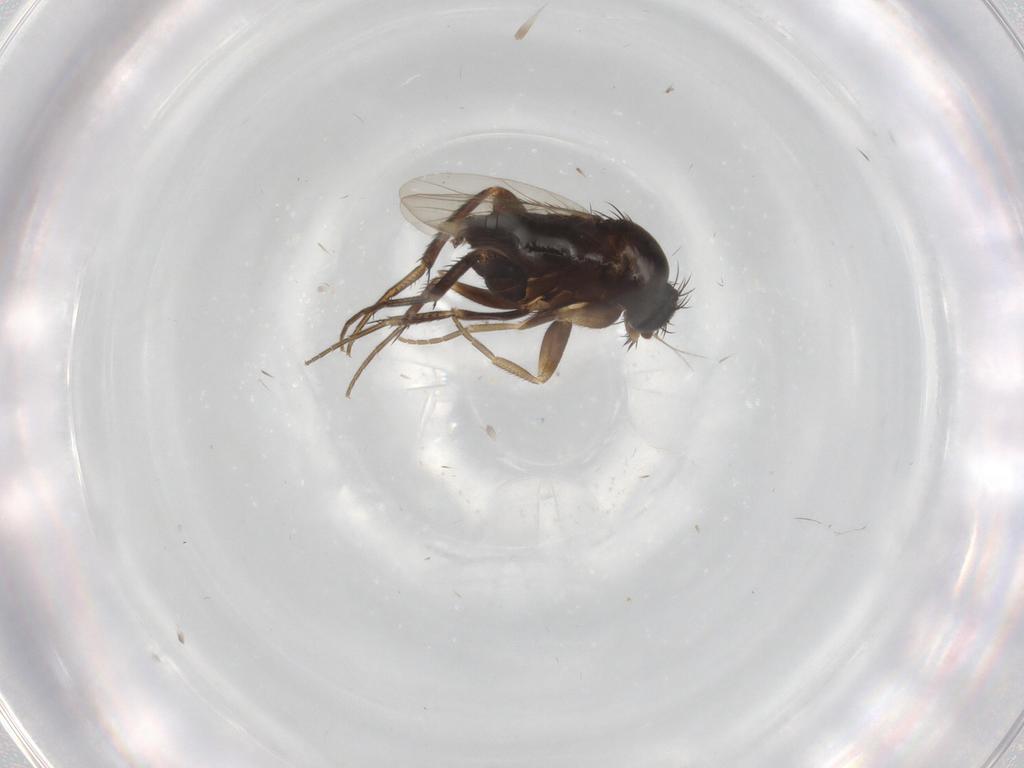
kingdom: Animalia
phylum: Arthropoda
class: Insecta
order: Diptera
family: Phoridae
